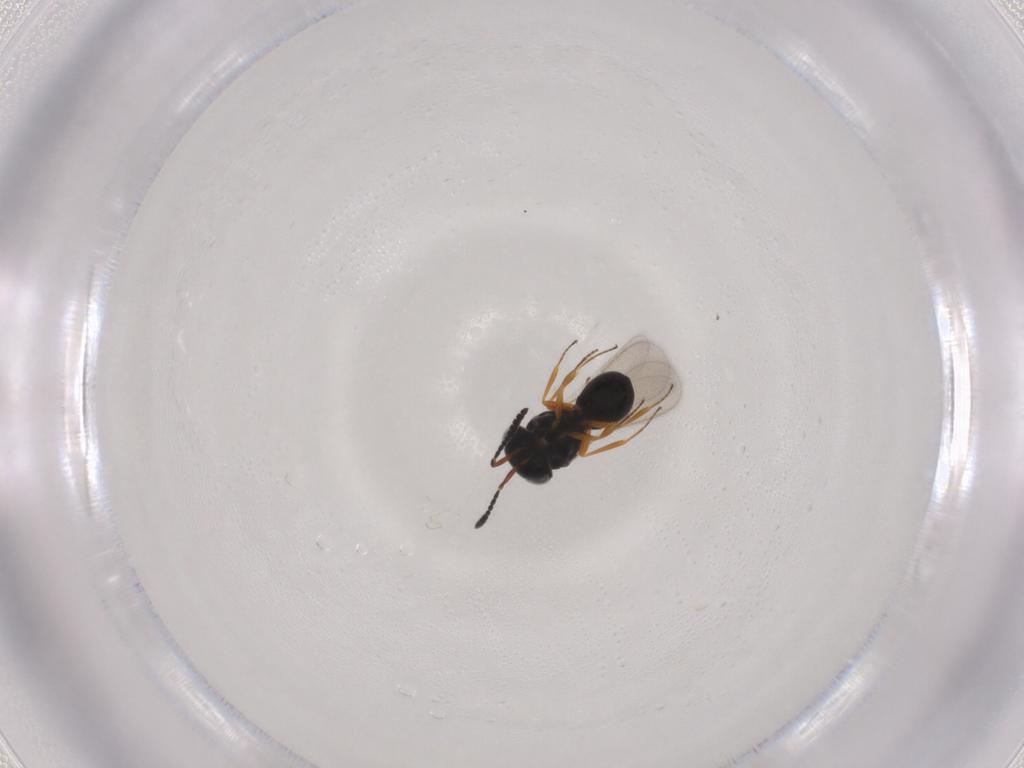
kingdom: Animalia
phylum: Arthropoda
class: Insecta
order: Hymenoptera
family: Scelionidae
